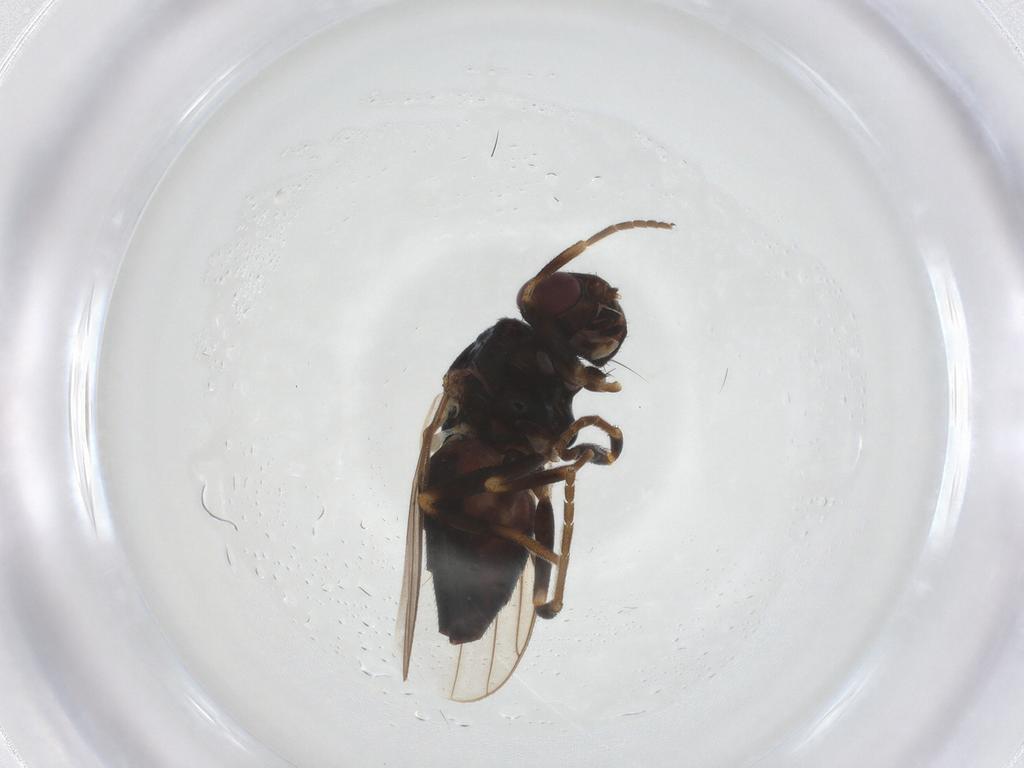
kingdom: Animalia
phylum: Arthropoda
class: Insecta
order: Diptera
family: Chloropidae
